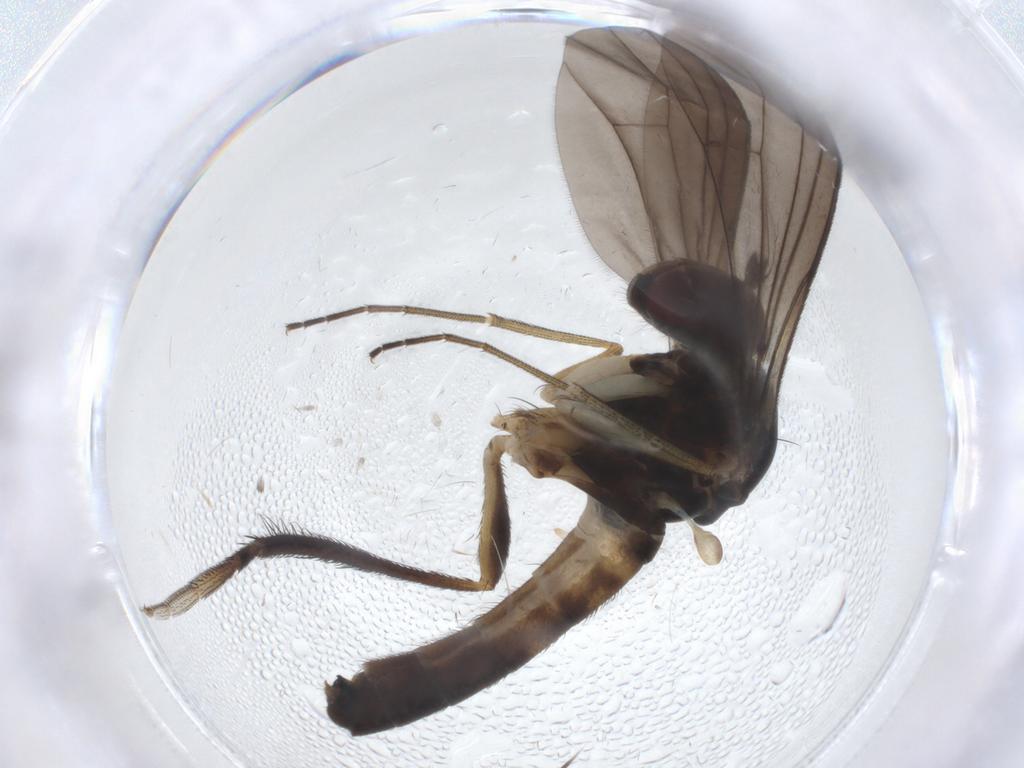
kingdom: Animalia
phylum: Arthropoda
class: Insecta
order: Diptera
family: Dolichopodidae
